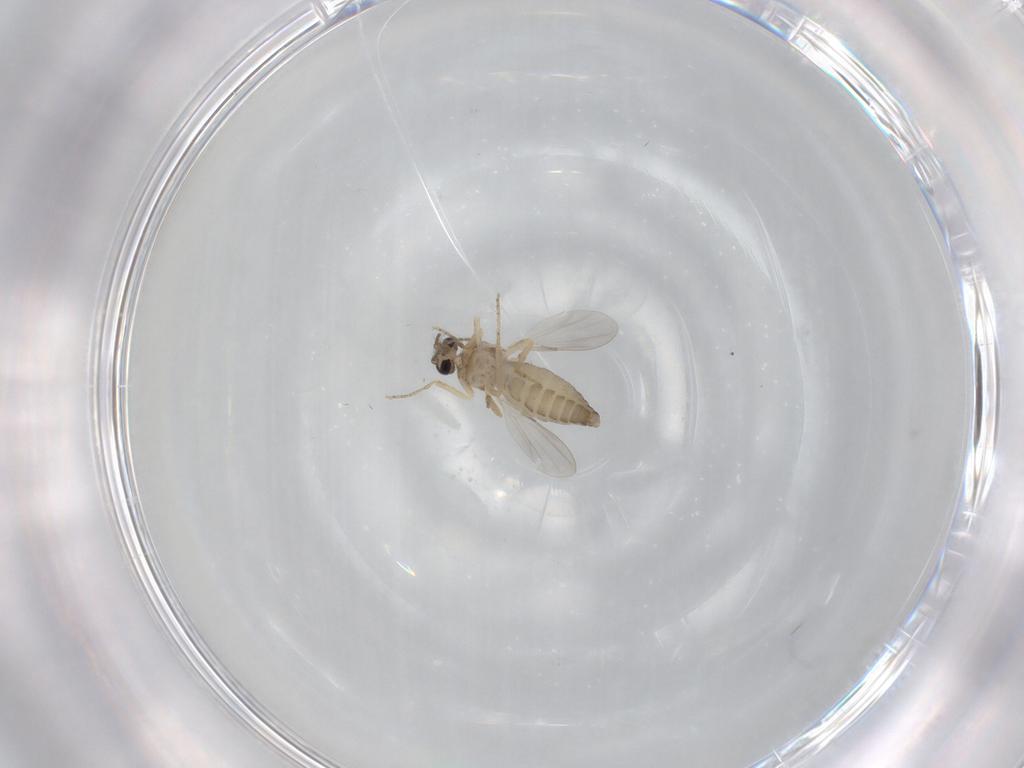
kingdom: Animalia
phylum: Arthropoda
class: Insecta
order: Diptera
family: Ceratopogonidae
